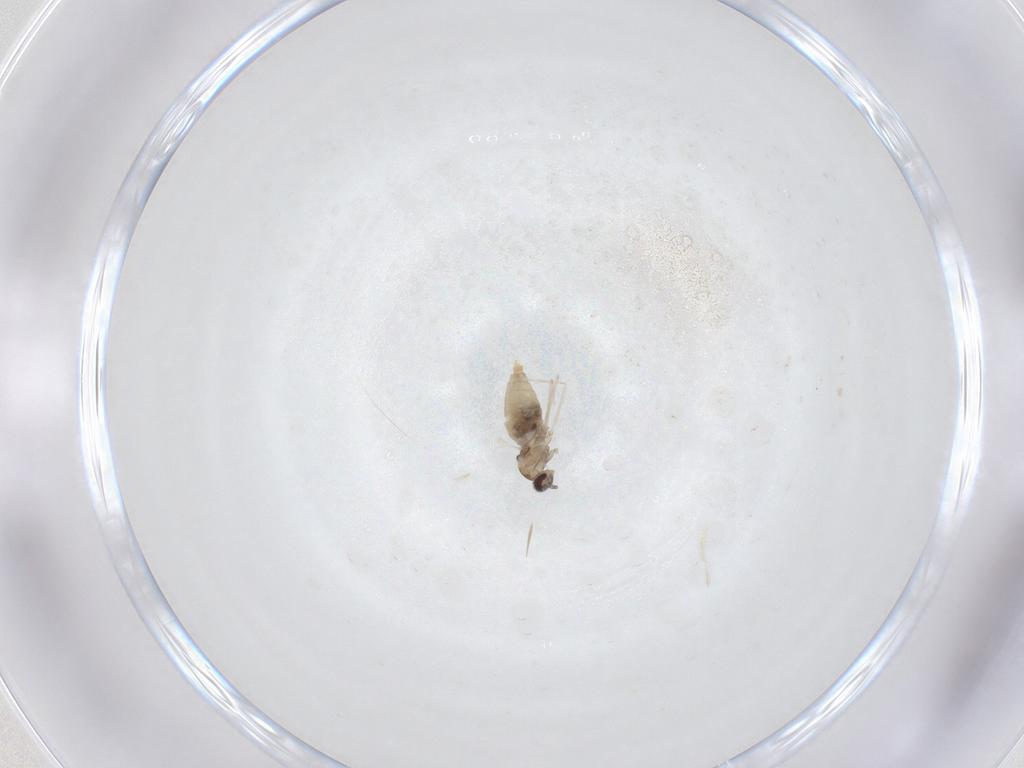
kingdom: Animalia
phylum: Arthropoda
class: Insecta
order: Diptera
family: Cecidomyiidae
